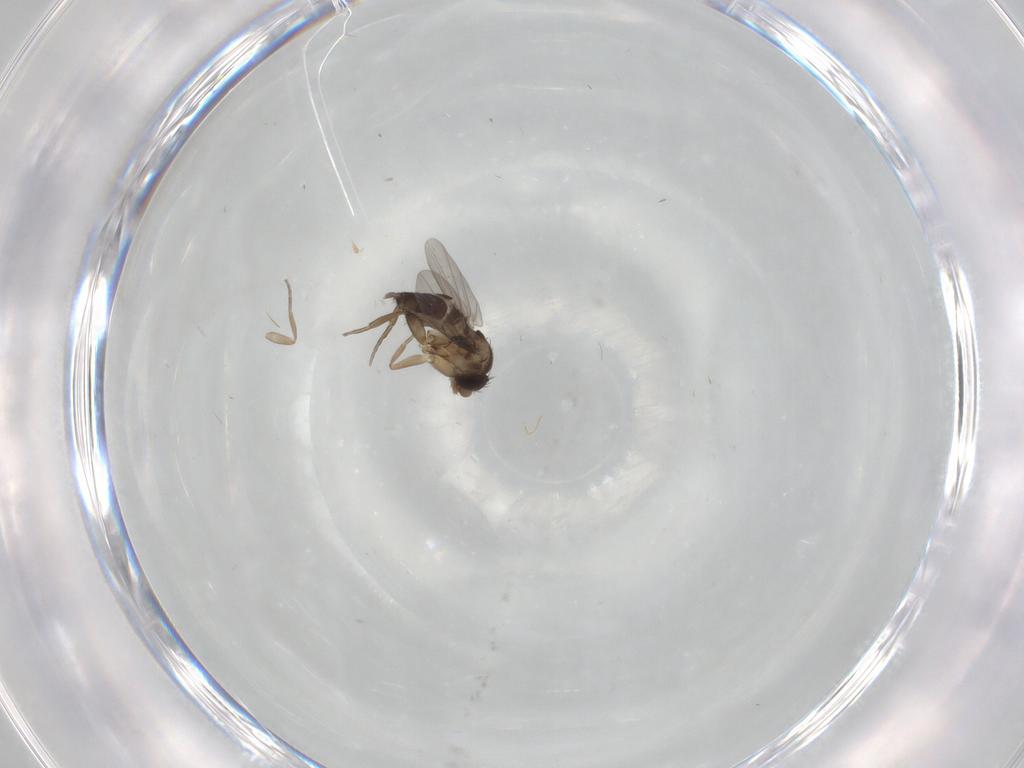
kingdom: Animalia
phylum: Arthropoda
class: Insecta
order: Diptera
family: Phoridae
